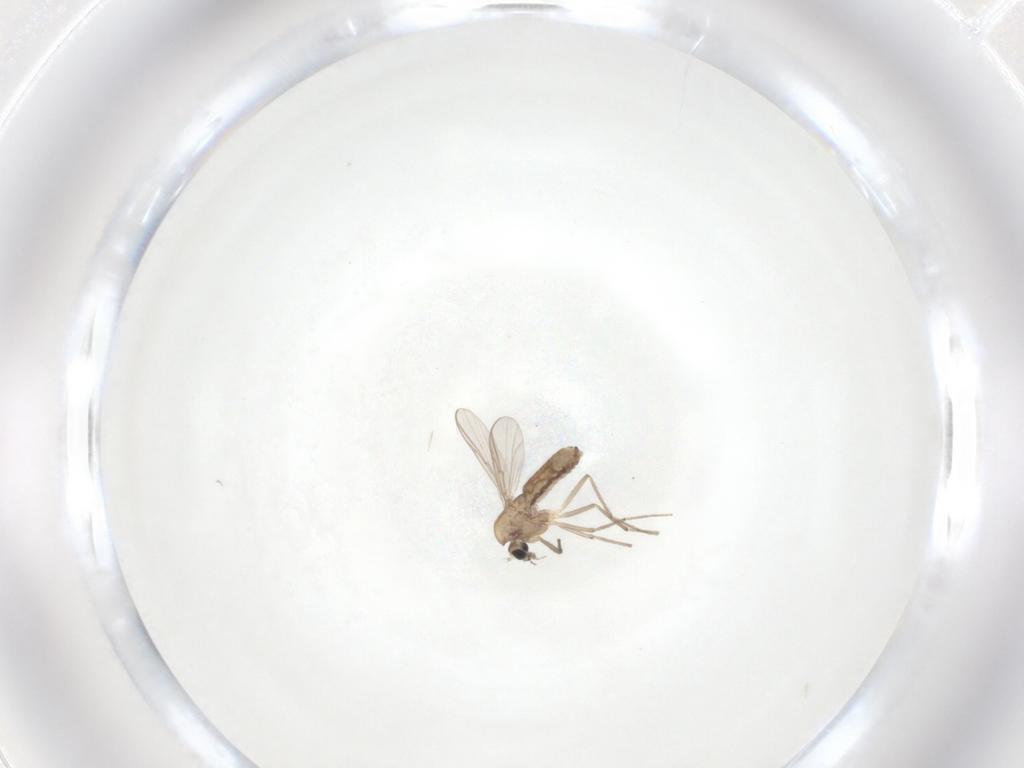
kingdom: Animalia
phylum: Arthropoda
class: Insecta
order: Diptera
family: Chironomidae
